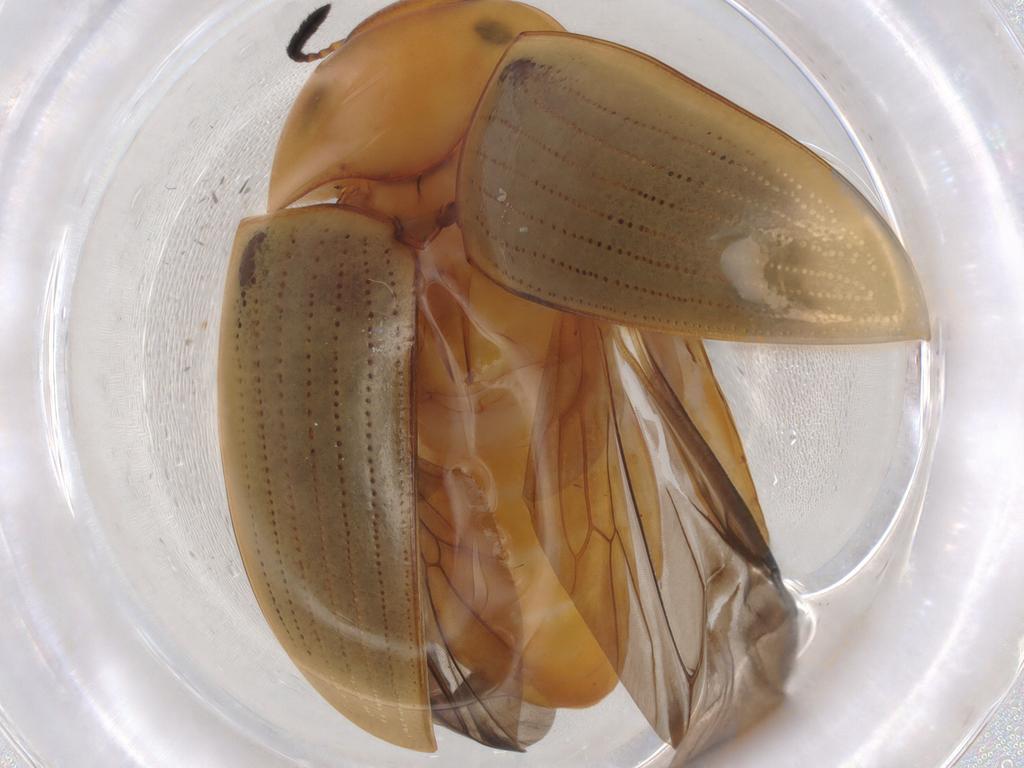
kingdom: Animalia
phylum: Arthropoda
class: Insecta
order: Coleoptera
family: Erotylidae
